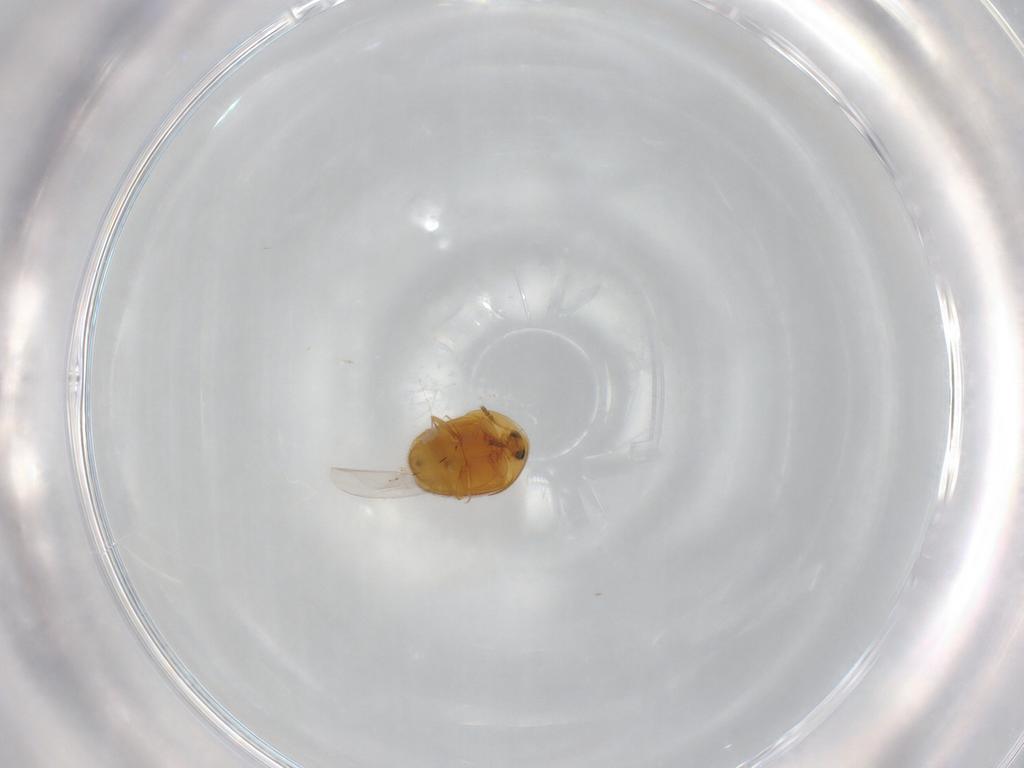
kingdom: Animalia
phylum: Arthropoda
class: Insecta
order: Coleoptera
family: Corylophidae
